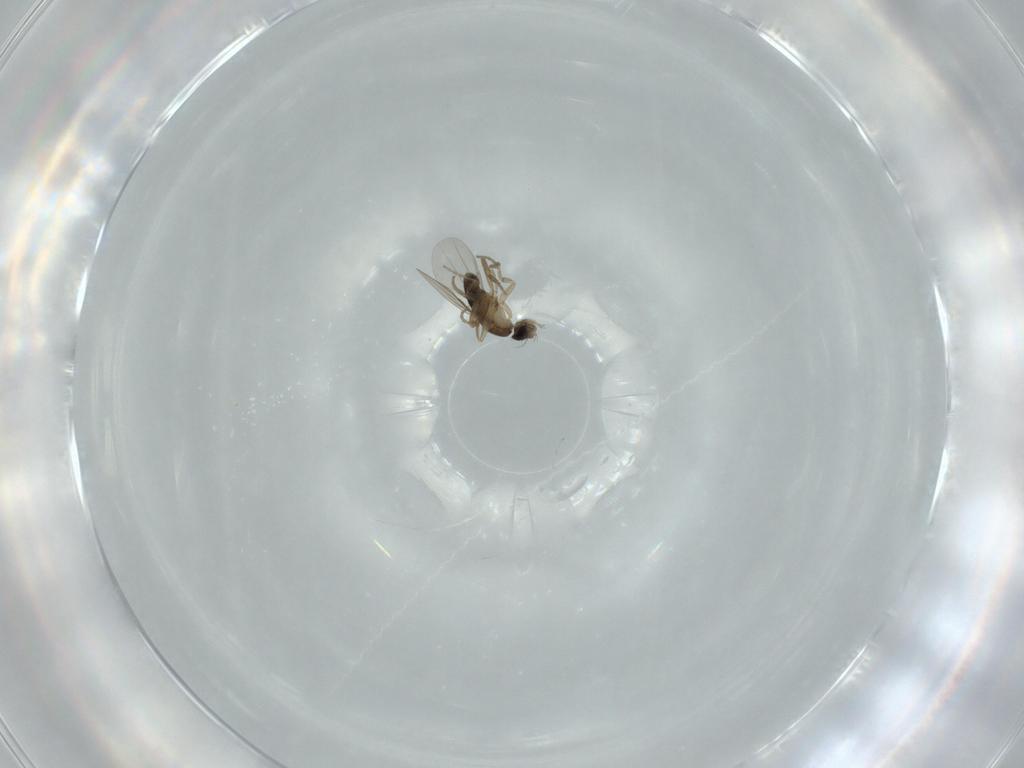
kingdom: Animalia
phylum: Arthropoda
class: Insecta
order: Diptera
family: Phoridae
